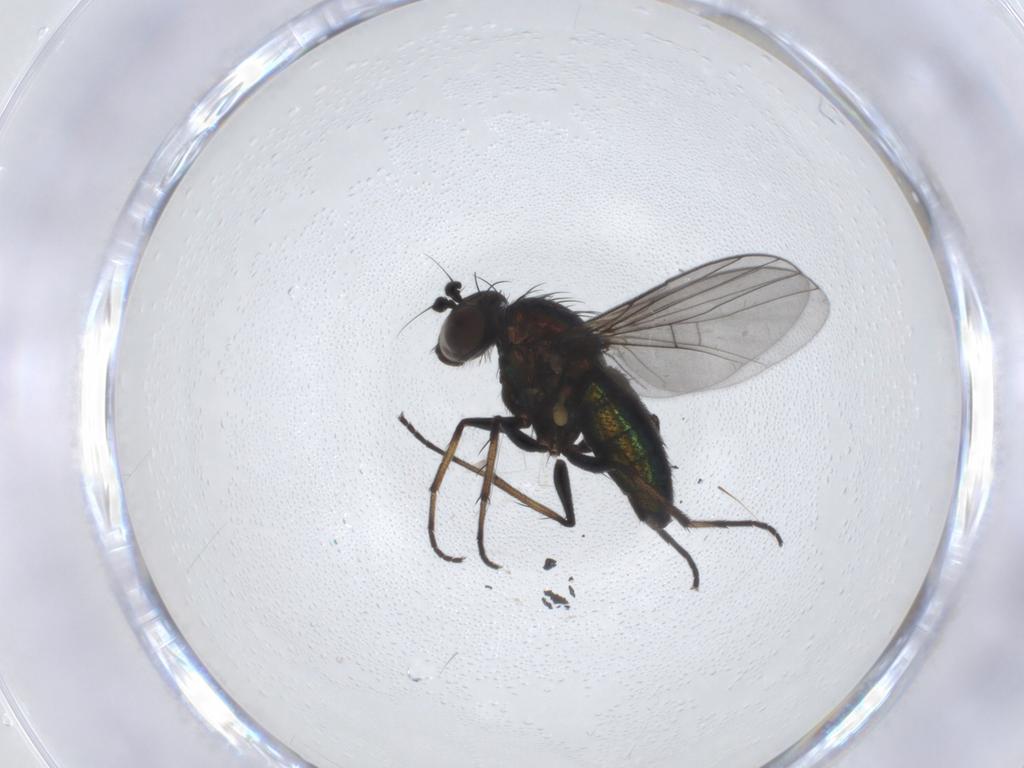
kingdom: Animalia
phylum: Arthropoda
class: Insecta
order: Diptera
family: Dolichopodidae
